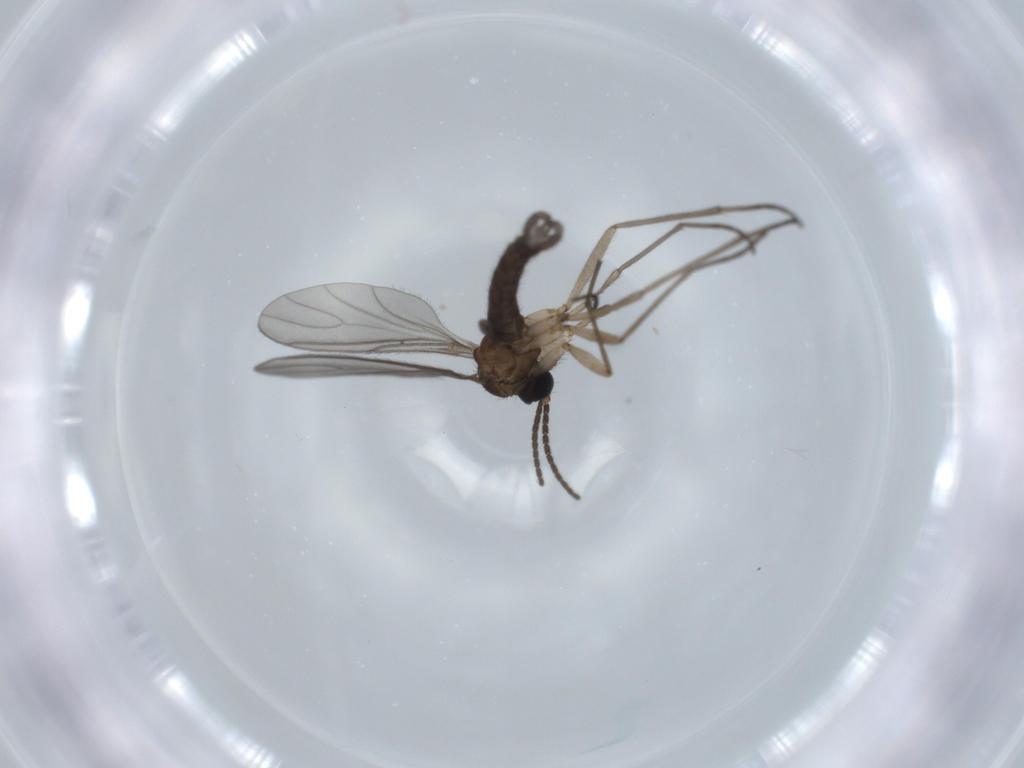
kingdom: Animalia
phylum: Arthropoda
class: Insecta
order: Diptera
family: Sciaridae
